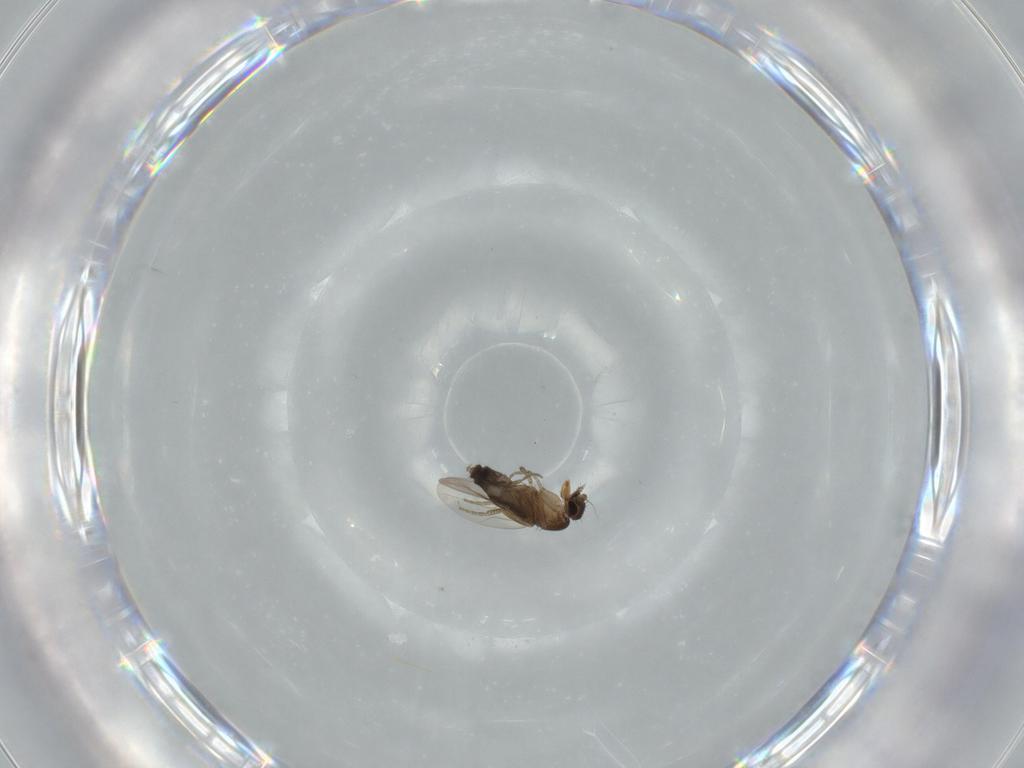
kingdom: Animalia
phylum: Arthropoda
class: Insecta
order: Diptera
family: Phoridae
